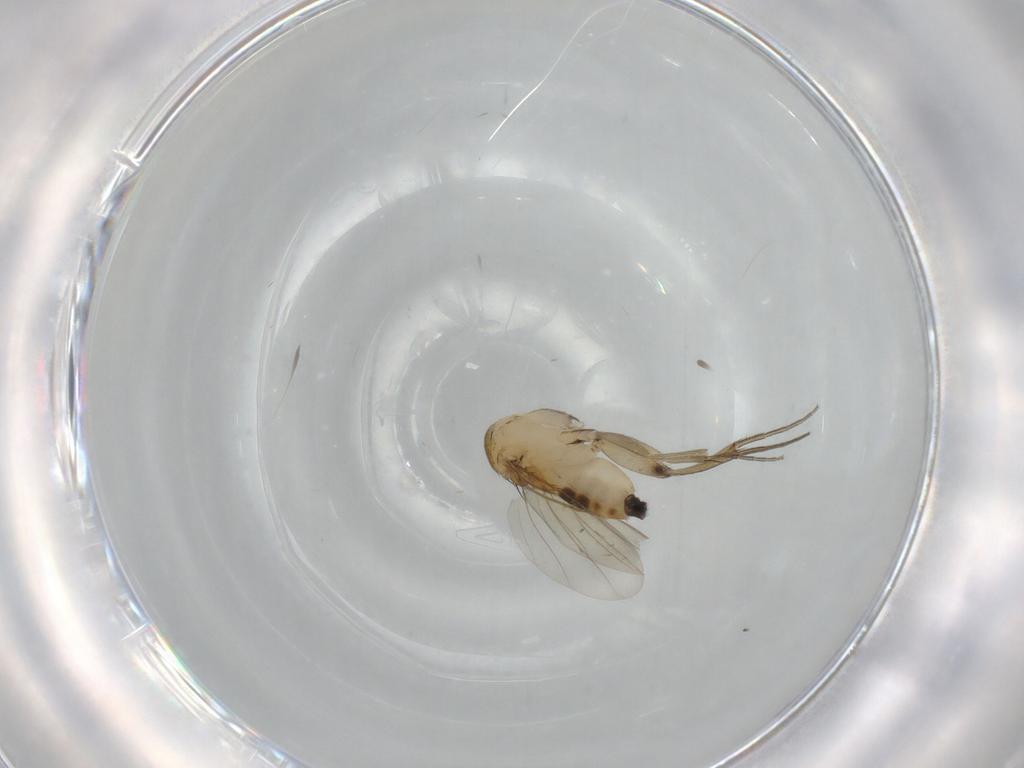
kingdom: Animalia
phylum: Arthropoda
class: Insecta
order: Diptera
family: Phoridae
